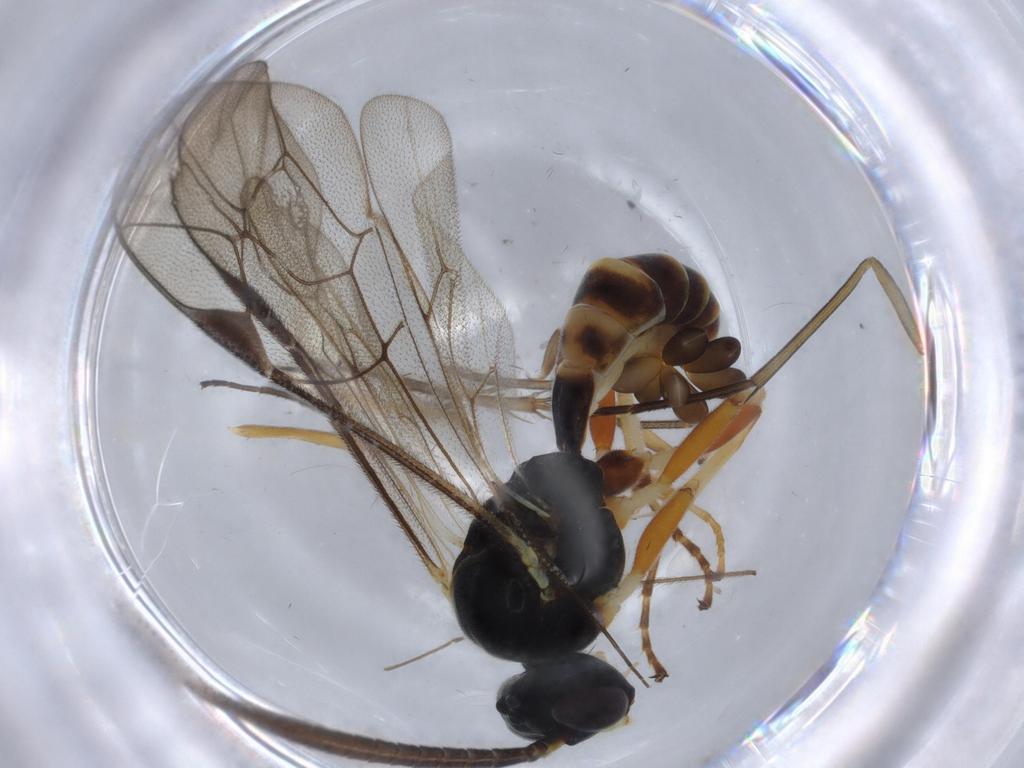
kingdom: Animalia
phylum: Arthropoda
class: Insecta
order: Hymenoptera
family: Ichneumonidae
